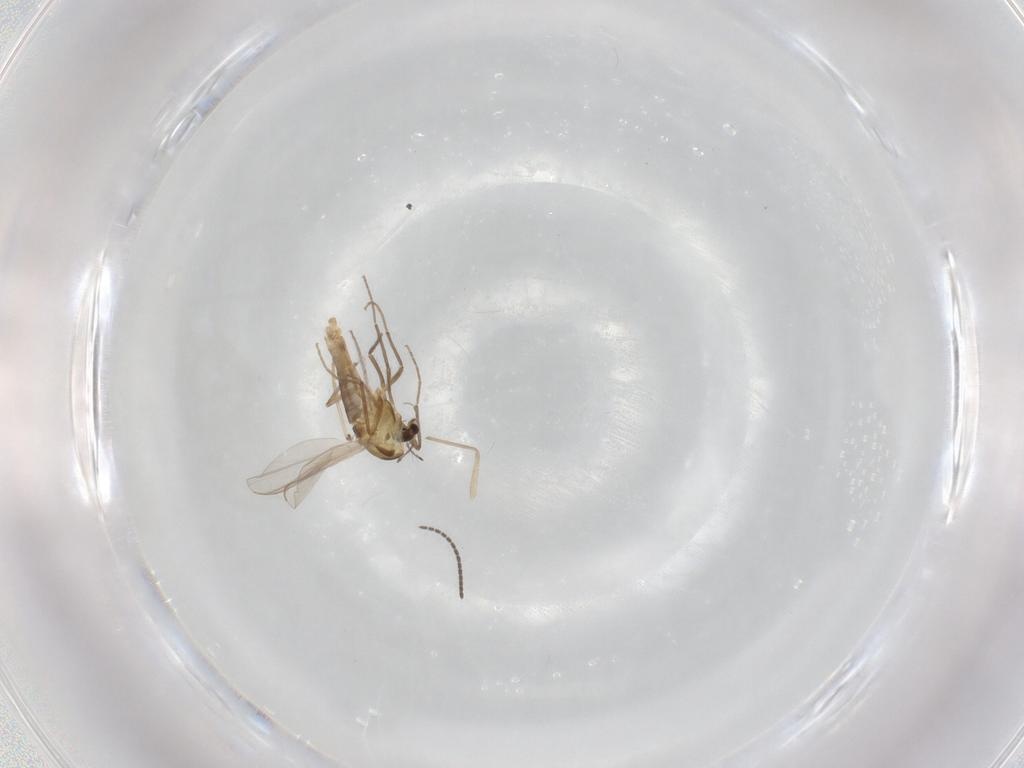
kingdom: Animalia
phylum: Arthropoda
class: Insecta
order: Diptera
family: Chironomidae
